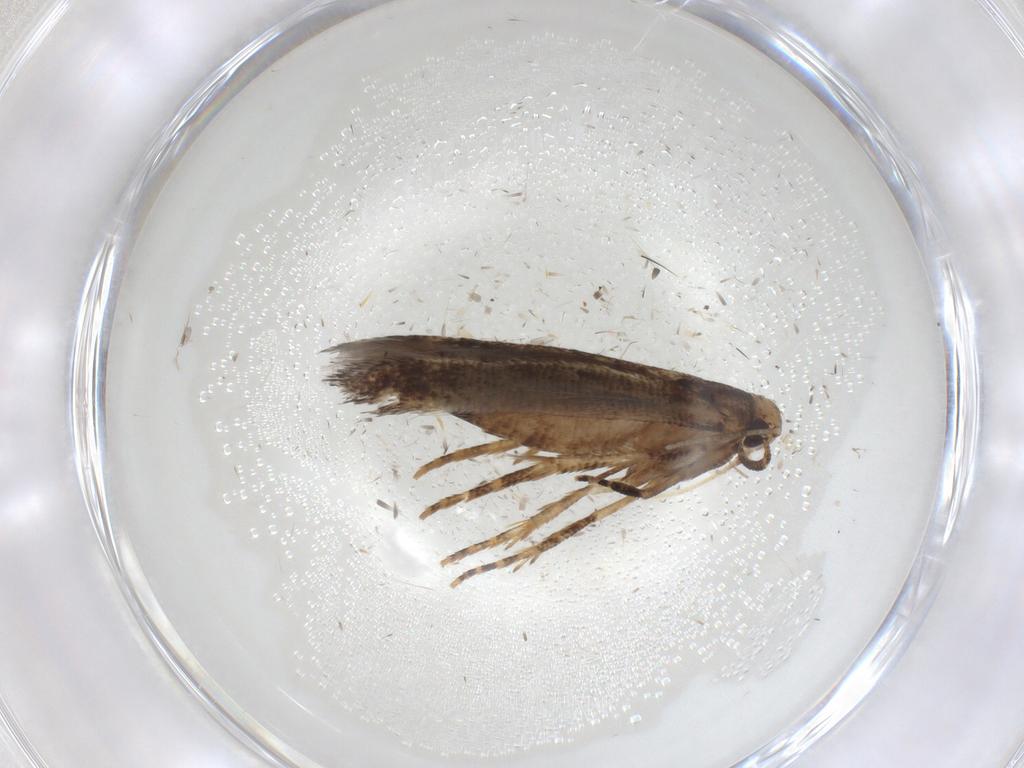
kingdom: Animalia
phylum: Arthropoda
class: Insecta
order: Lepidoptera
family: Cosmopterigidae
